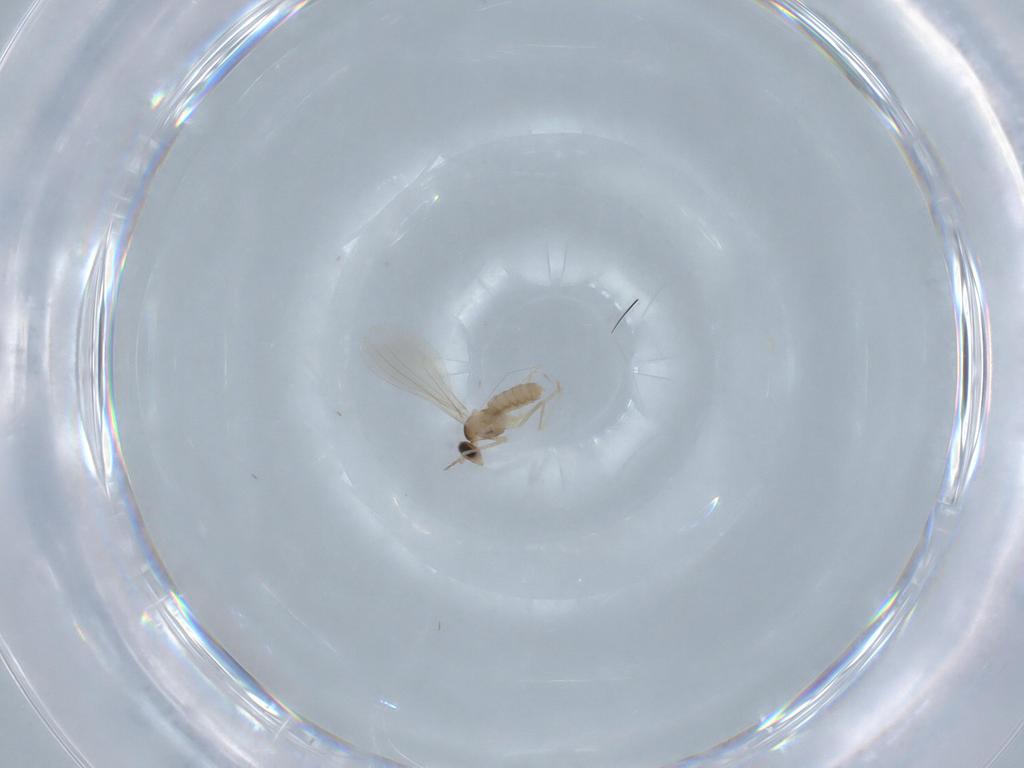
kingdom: Animalia
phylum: Arthropoda
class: Insecta
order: Diptera
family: Cecidomyiidae
